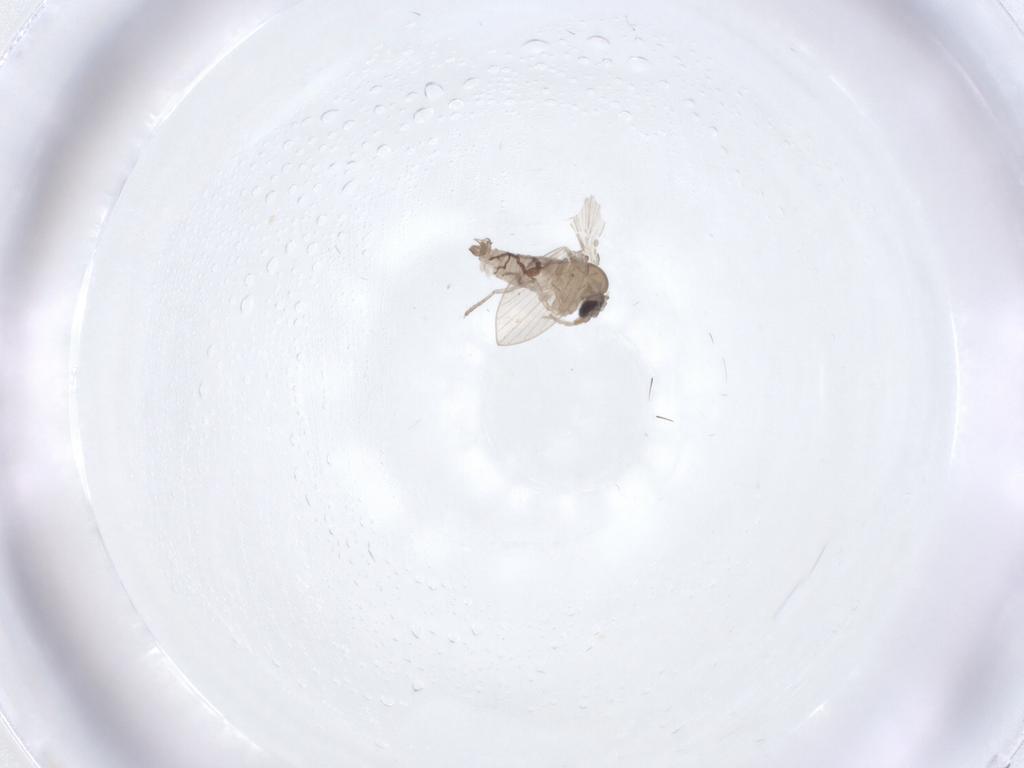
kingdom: Animalia
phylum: Arthropoda
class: Insecta
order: Diptera
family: Psychodidae
